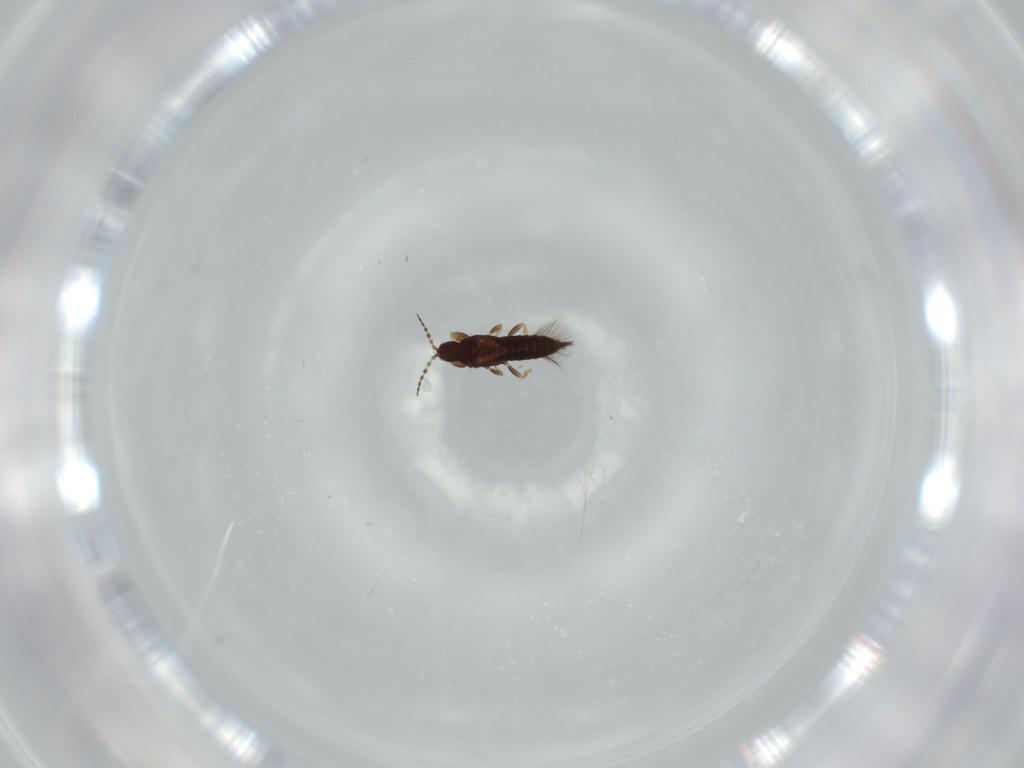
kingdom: Animalia
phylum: Arthropoda
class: Insecta
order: Thysanoptera
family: Phlaeothripidae
